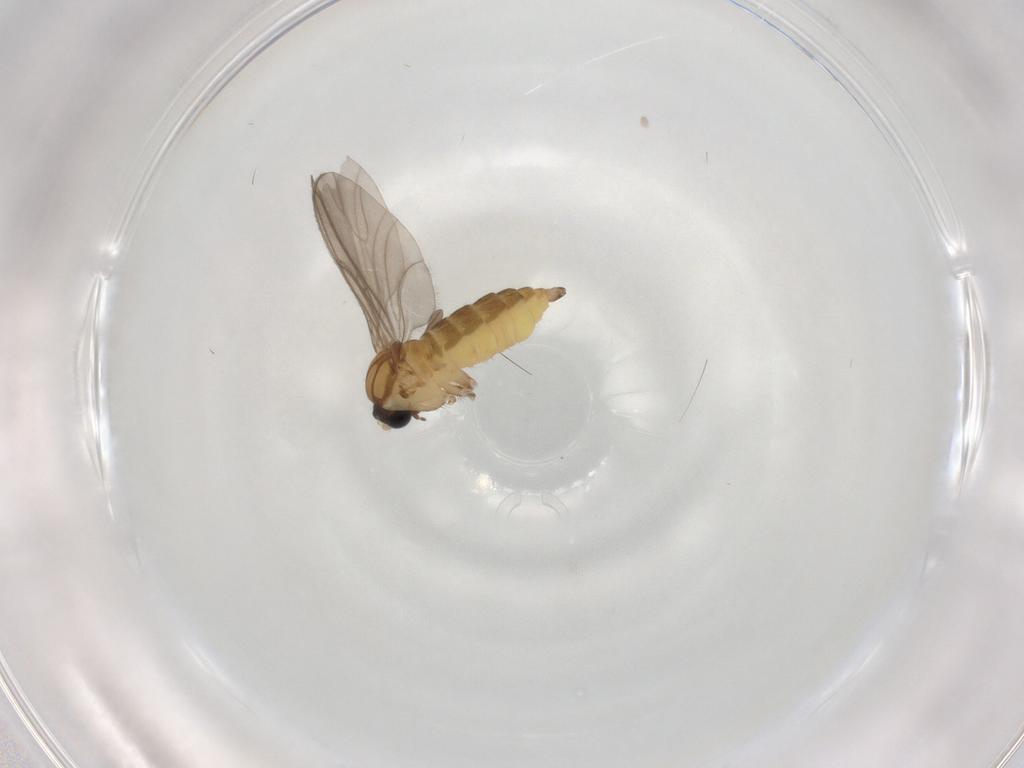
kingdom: Animalia
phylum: Arthropoda
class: Insecta
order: Diptera
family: Sciaridae
